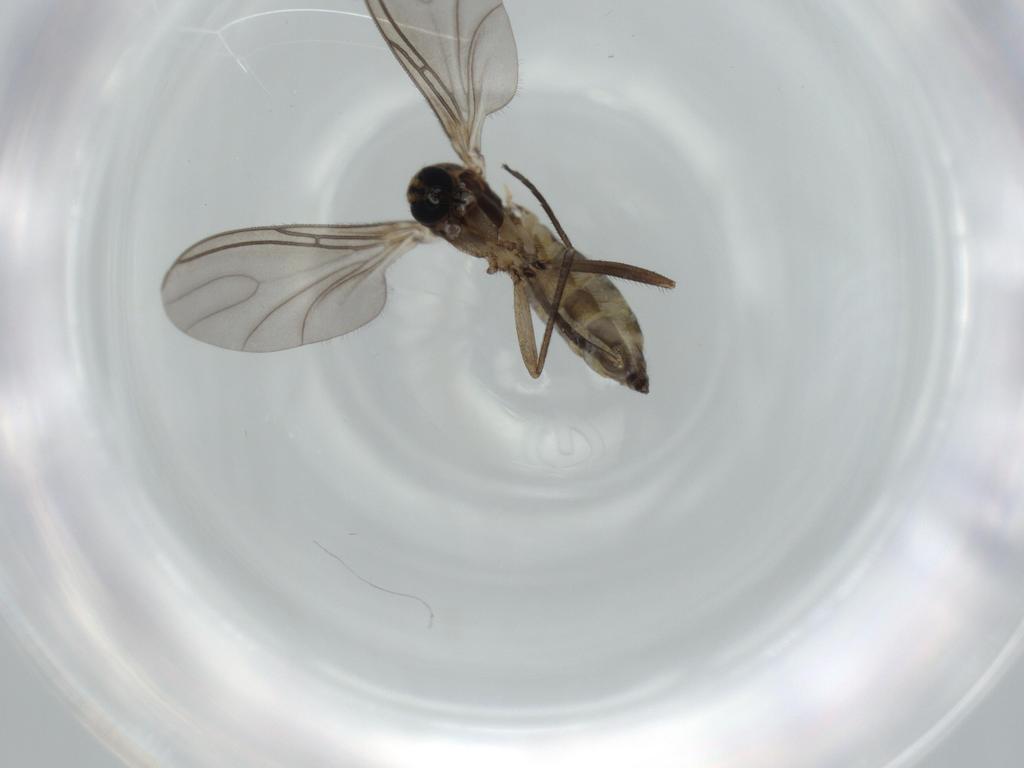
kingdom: Animalia
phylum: Arthropoda
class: Insecta
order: Diptera
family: Sciaridae
